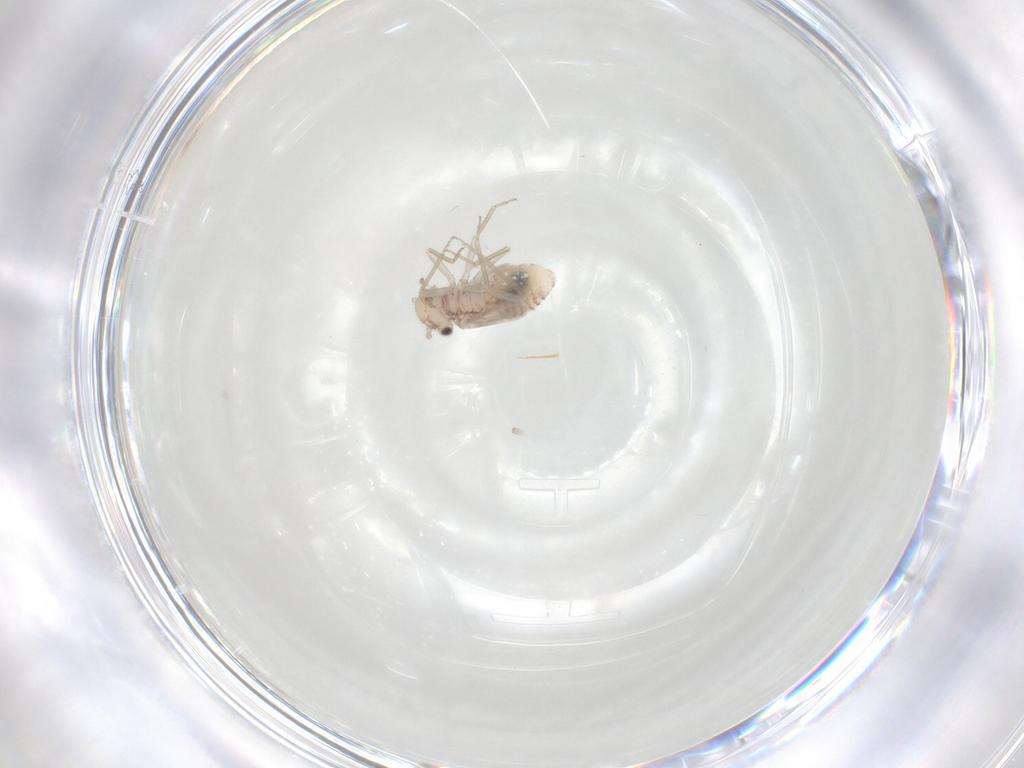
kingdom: Animalia
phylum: Arthropoda
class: Insecta
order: Psocodea
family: Lachesillidae
